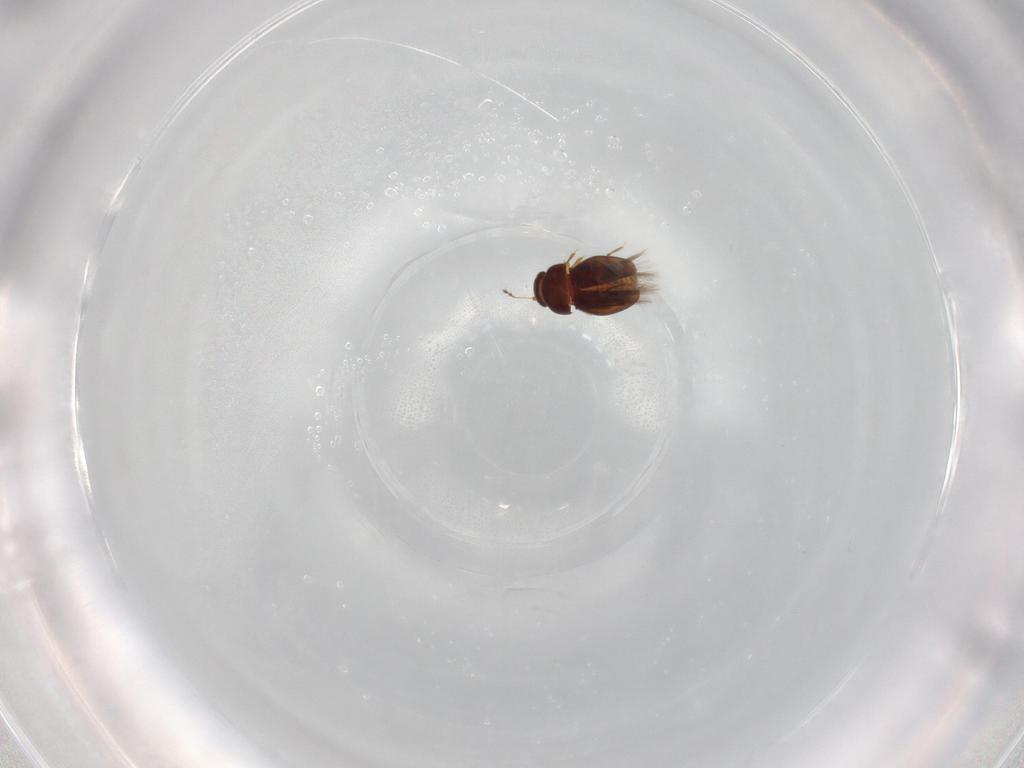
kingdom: Animalia
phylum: Arthropoda
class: Insecta
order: Coleoptera
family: Ptiliidae
